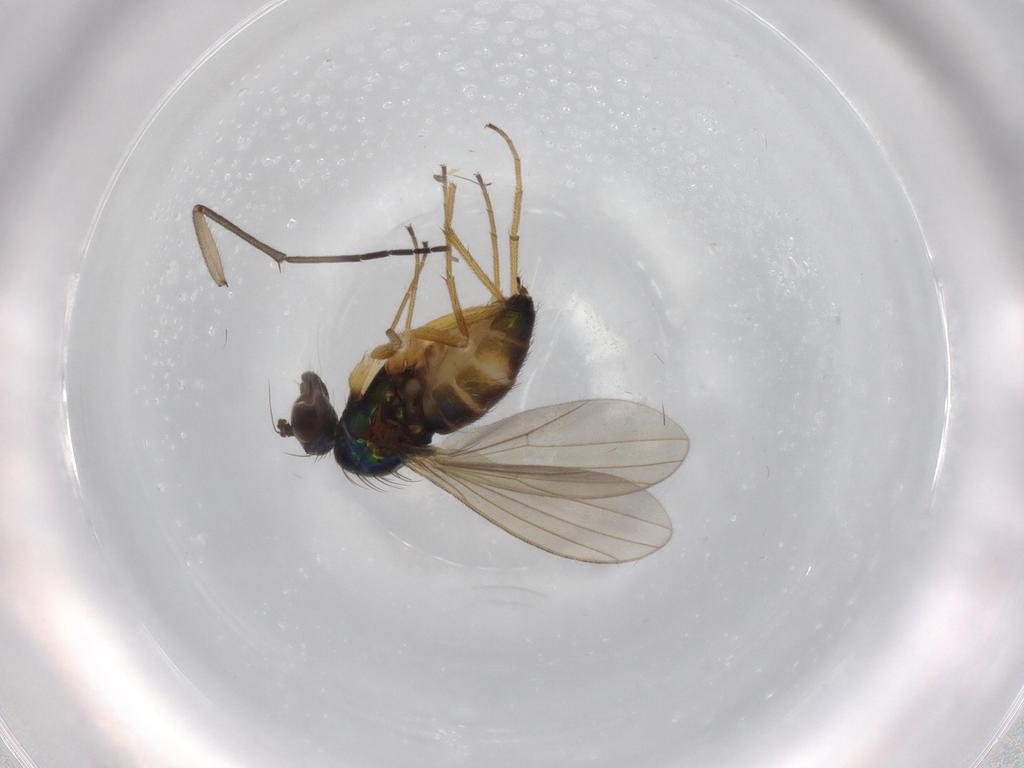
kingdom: Animalia
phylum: Arthropoda
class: Insecta
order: Diptera
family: Dolichopodidae
